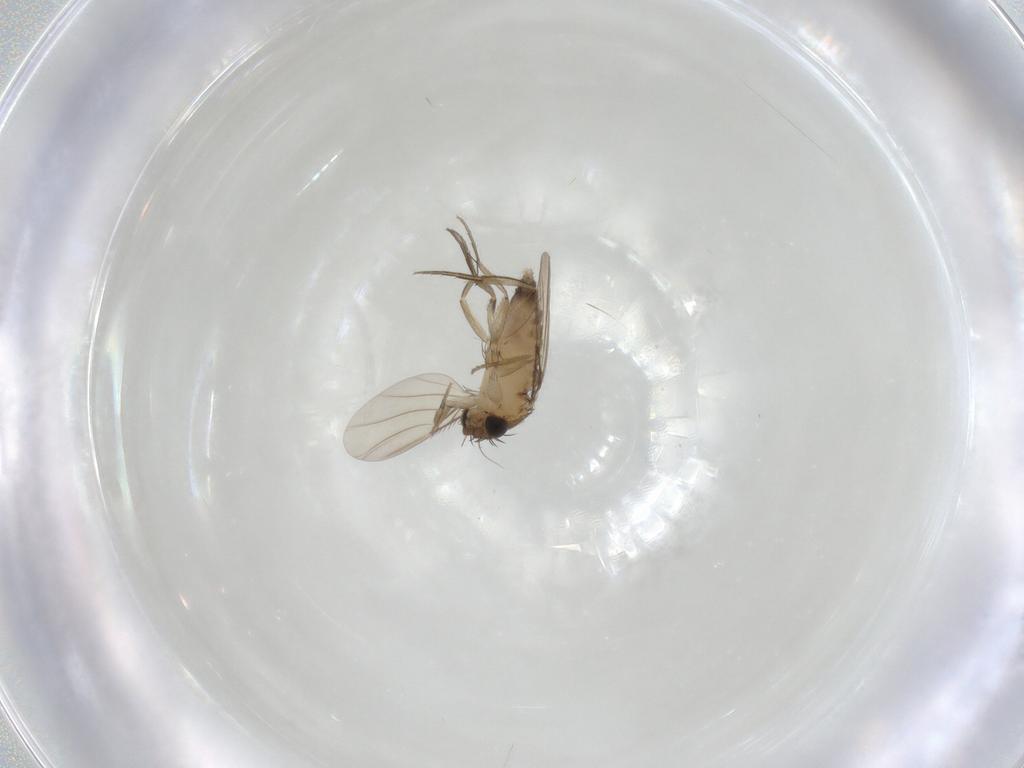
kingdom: Animalia
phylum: Arthropoda
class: Insecta
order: Diptera
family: Phoridae
